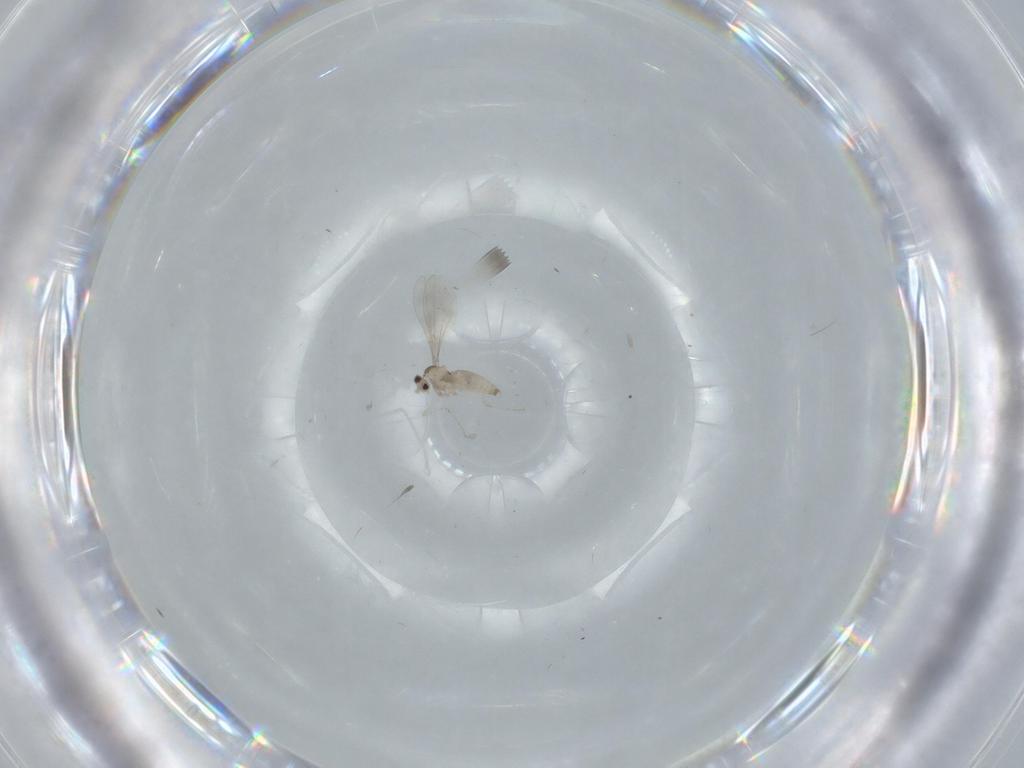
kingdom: Animalia
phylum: Arthropoda
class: Insecta
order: Diptera
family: Cecidomyiidae
